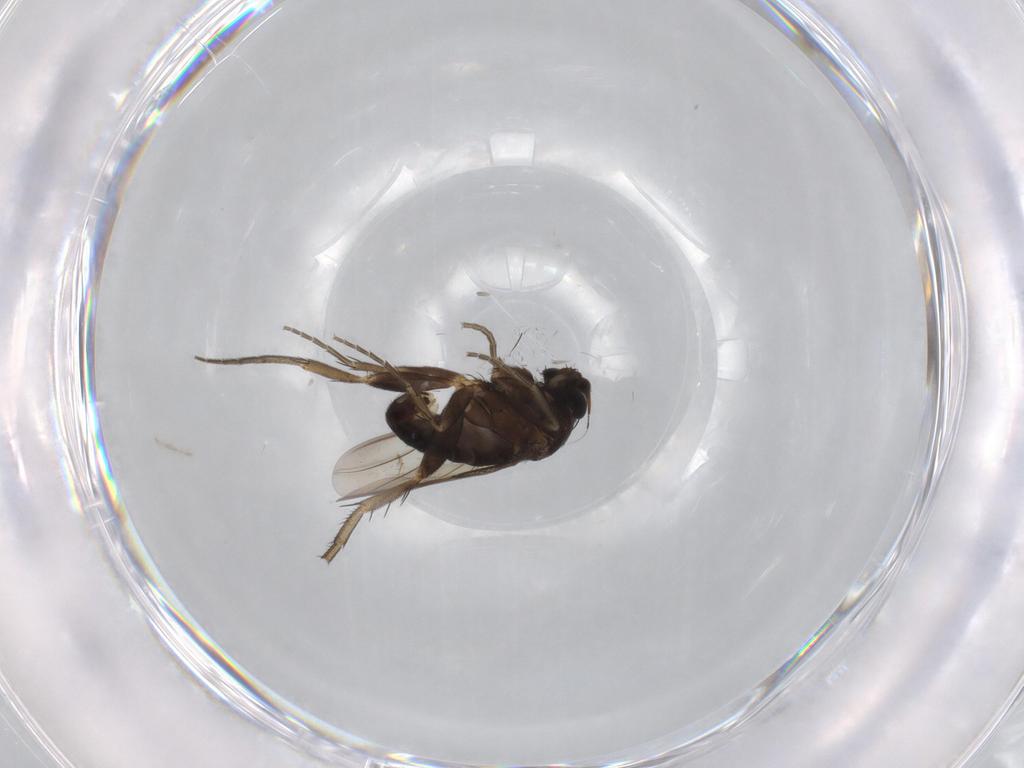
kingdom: Animalia
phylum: Arthropoda
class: Insecta
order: Diptera
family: Phoridae
